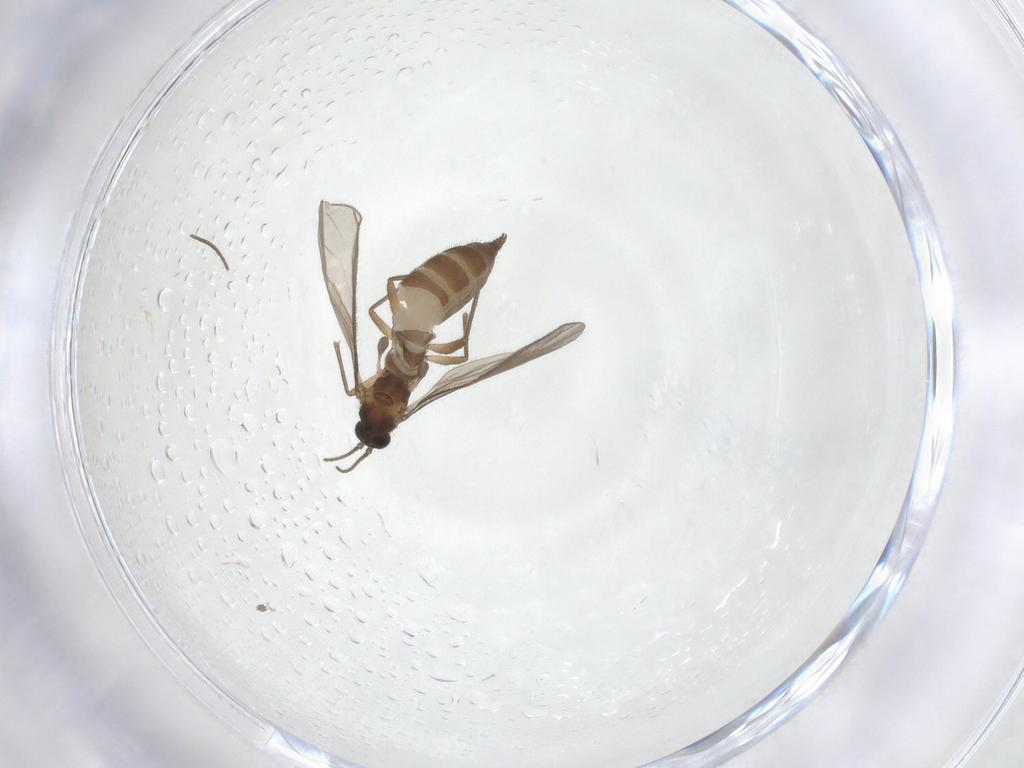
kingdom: Animalia
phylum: Arthropoda
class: Insecta
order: Diptera
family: Sciaridae
